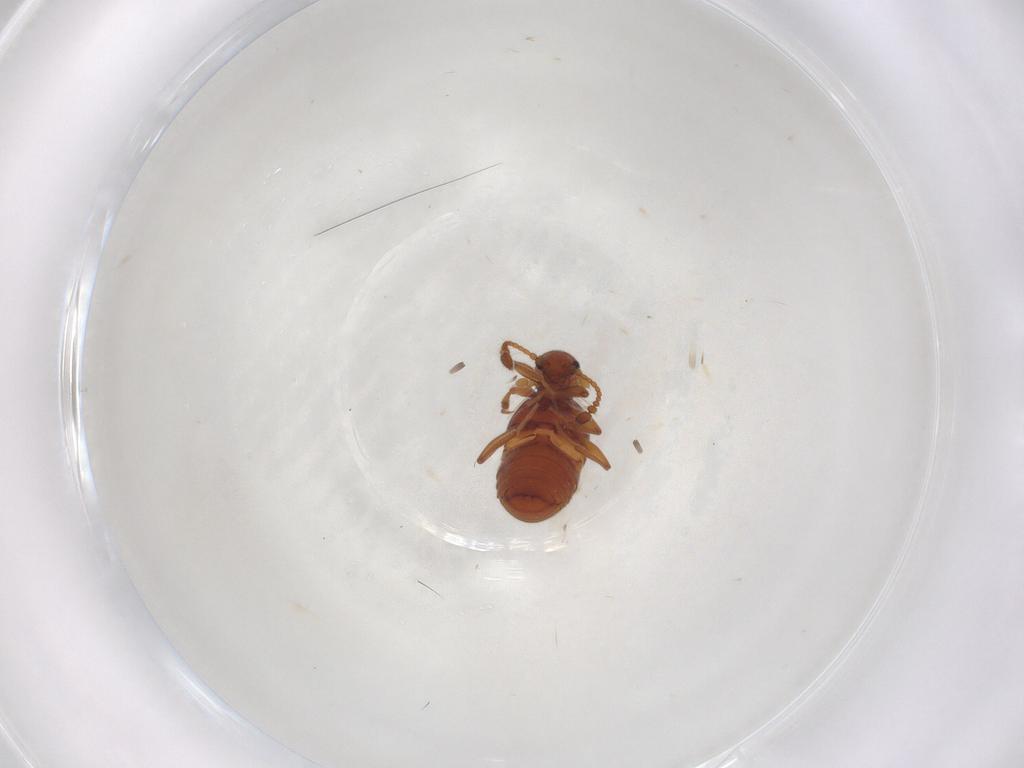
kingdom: Animalia
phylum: Arthropoda
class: Insecta
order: Coleoptera
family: Staphylinidae
